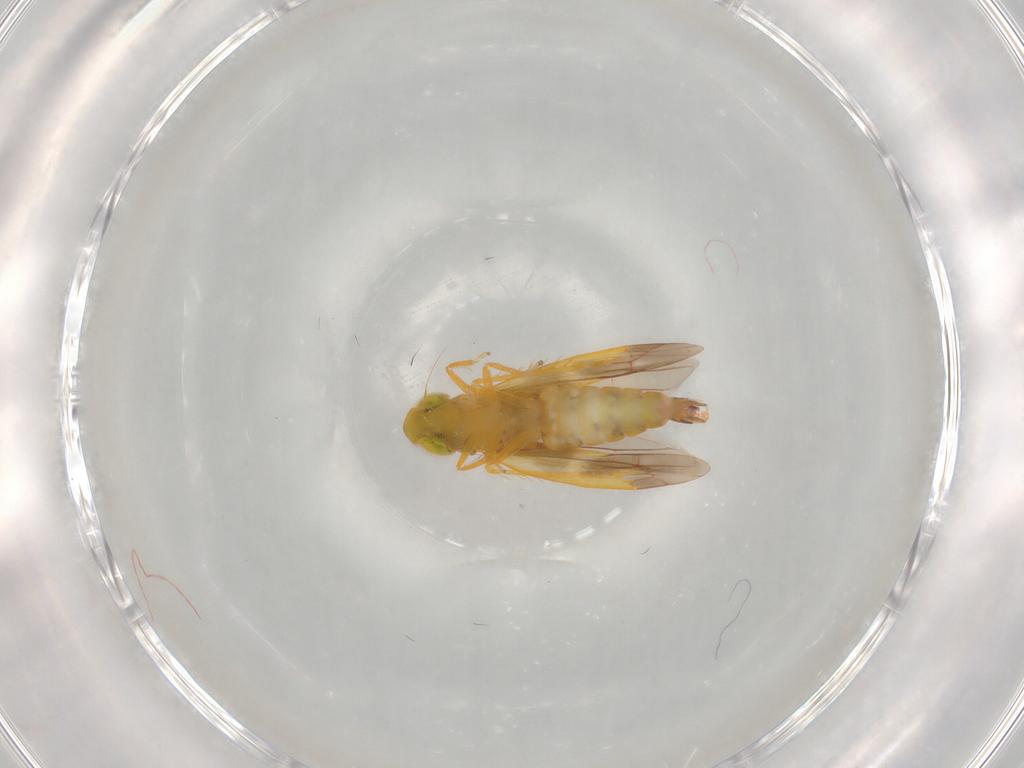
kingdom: Animalia
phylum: Arthropoda
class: Insecta
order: Hemiptera
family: Cicadellidae
